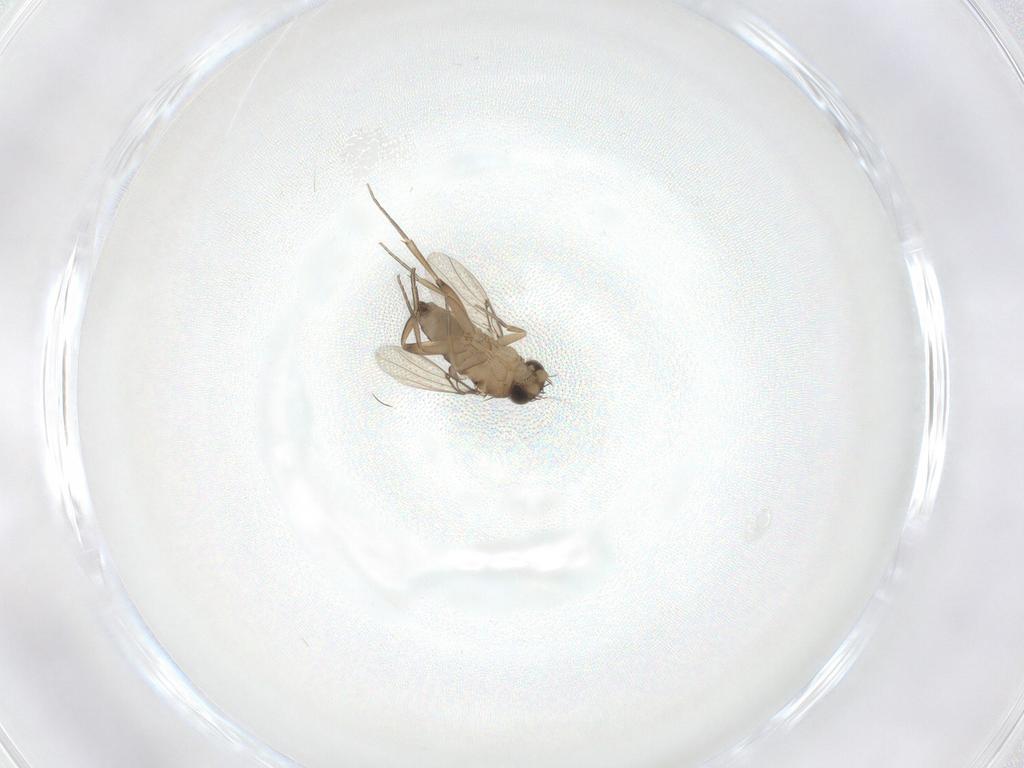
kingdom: Animalia
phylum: Arthropoda
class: Insecta
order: Diptera
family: Phoridae
